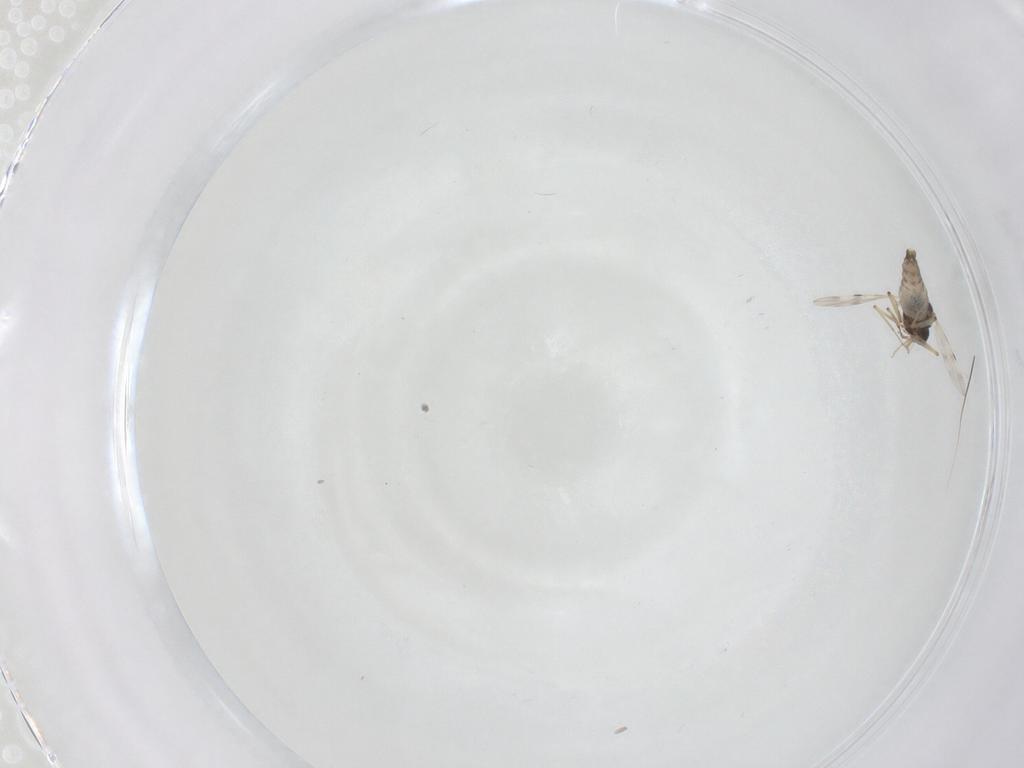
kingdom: Animalia
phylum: Arthropoda
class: Insecta
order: Diptera
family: Cecidomyiidae
